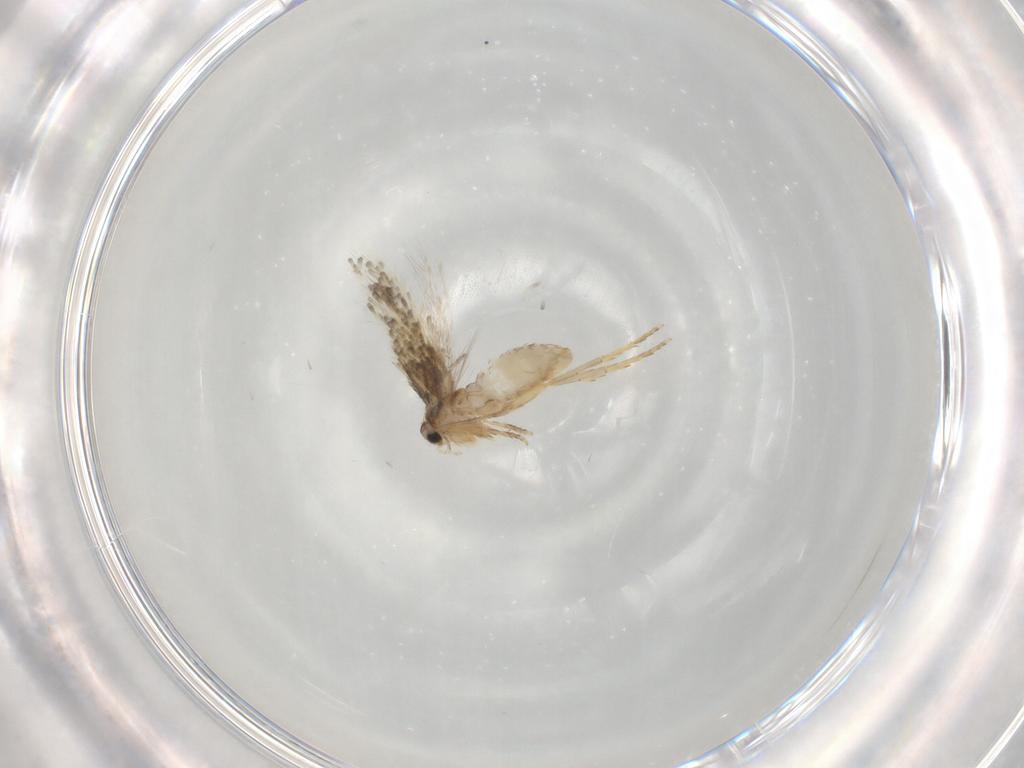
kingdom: Animalia
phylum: Arthropoda
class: Insecta
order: Lepidoptera
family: Nepticulidae
